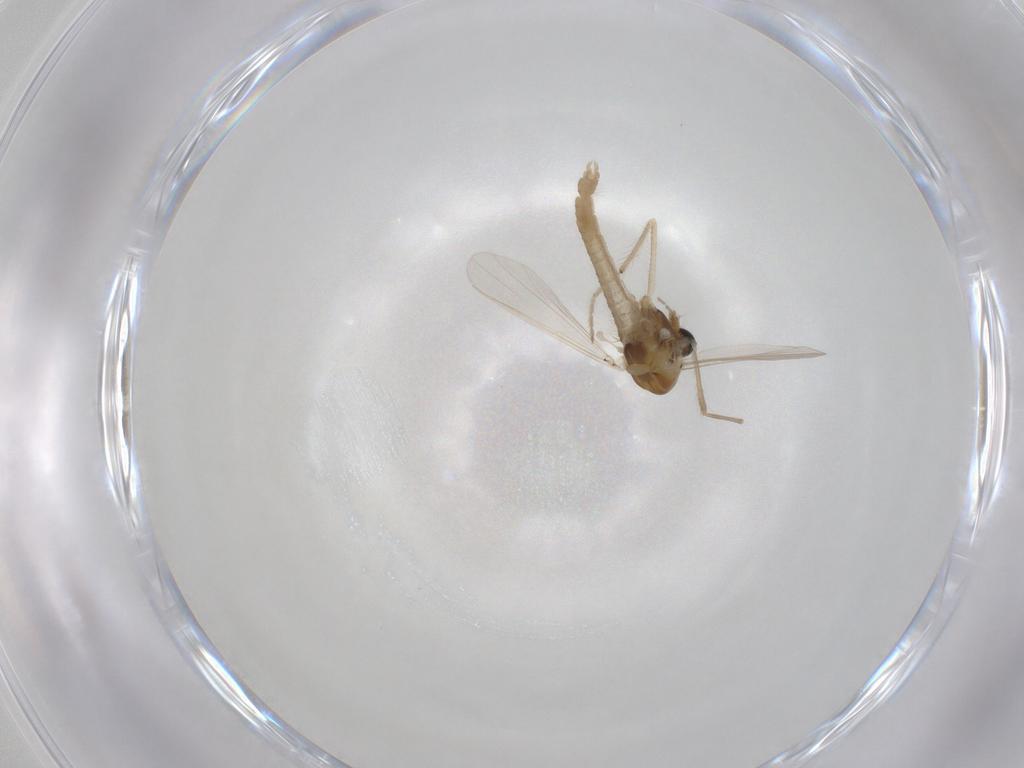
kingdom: Animalia
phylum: Arthropoda
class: Insecta
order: Diptera
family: Chironomidae
